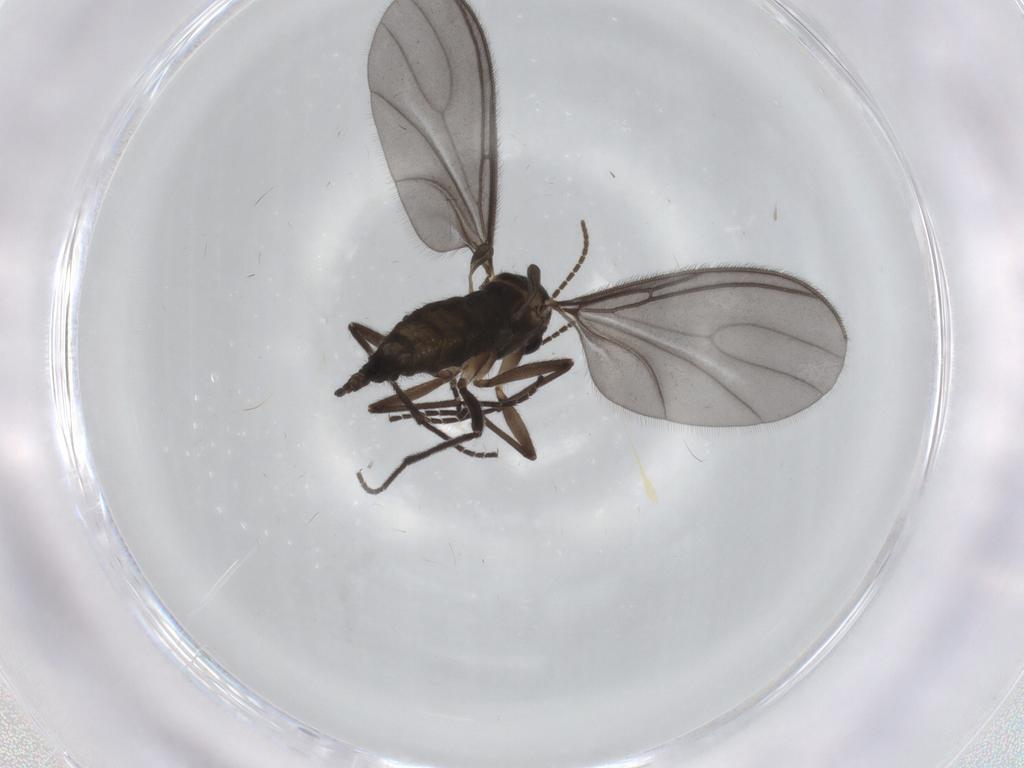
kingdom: Animalia
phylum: Arthropoda
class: Insecta
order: Diptera
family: Sciaridae
